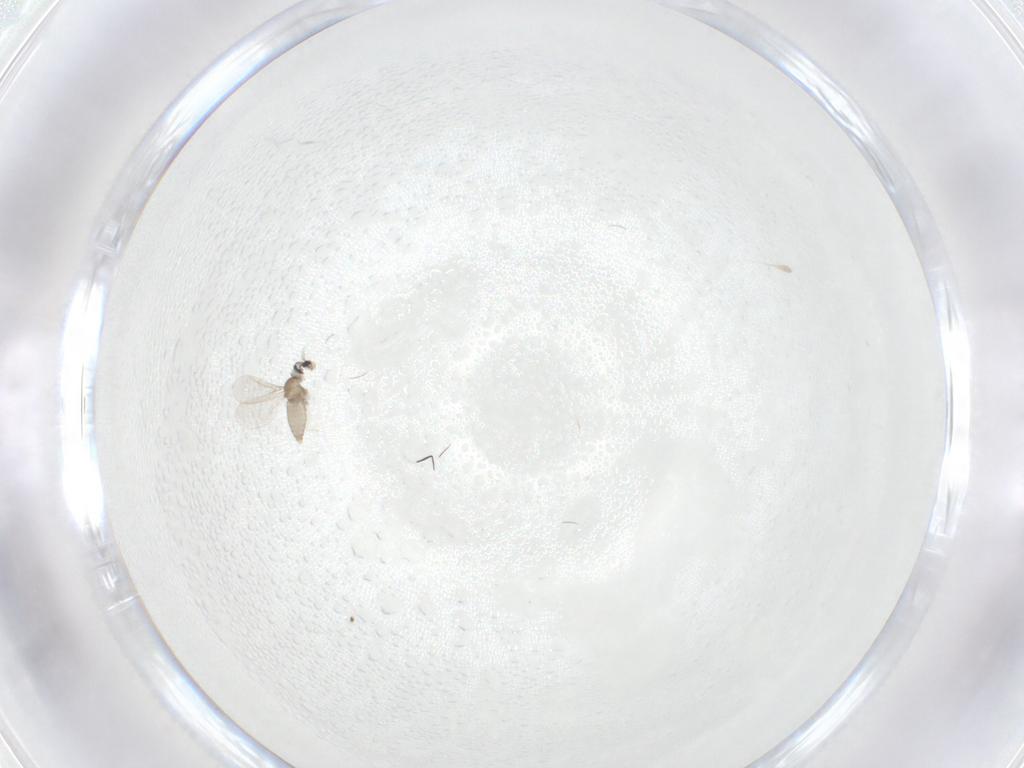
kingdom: Animalia
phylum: Arthropoda
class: Insecta
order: Diptera
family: Cecidomyiidae
